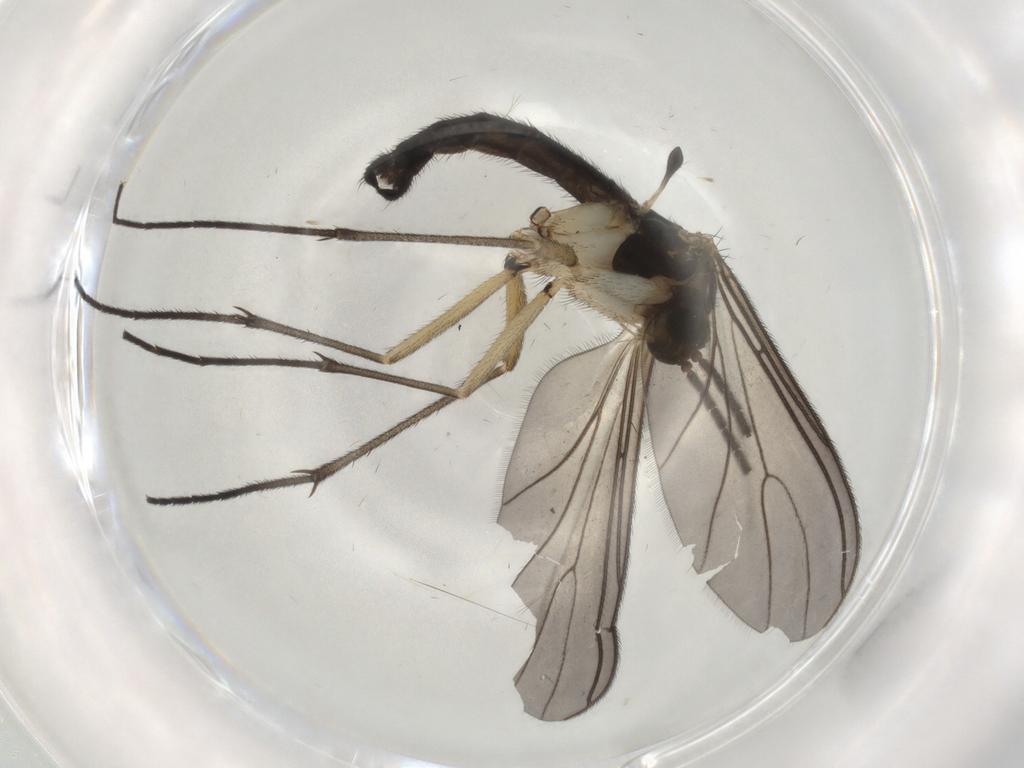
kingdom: Animalia
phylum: Arthropoda
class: Insecta
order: Diptera
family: Sciaridae
